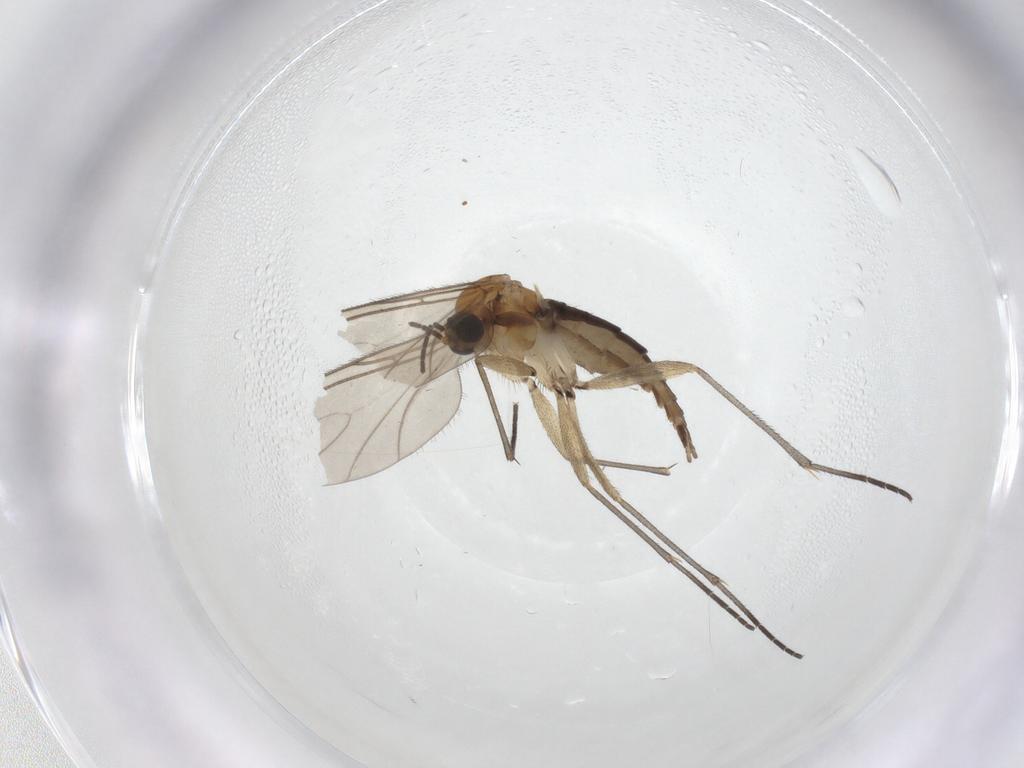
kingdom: Animalia
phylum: Arthropoda
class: Insecta
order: Diptera
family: Sciaridae
